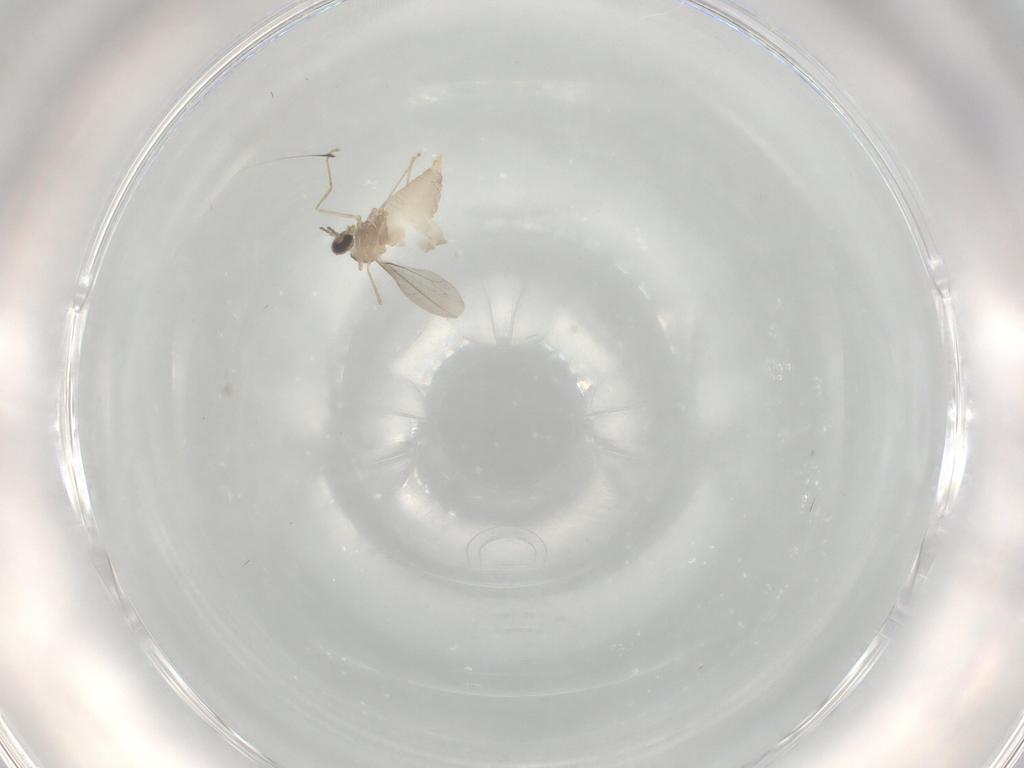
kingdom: Animalia
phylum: Arthropoda
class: Insecta
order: Diptera
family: Cecidomyiidae
